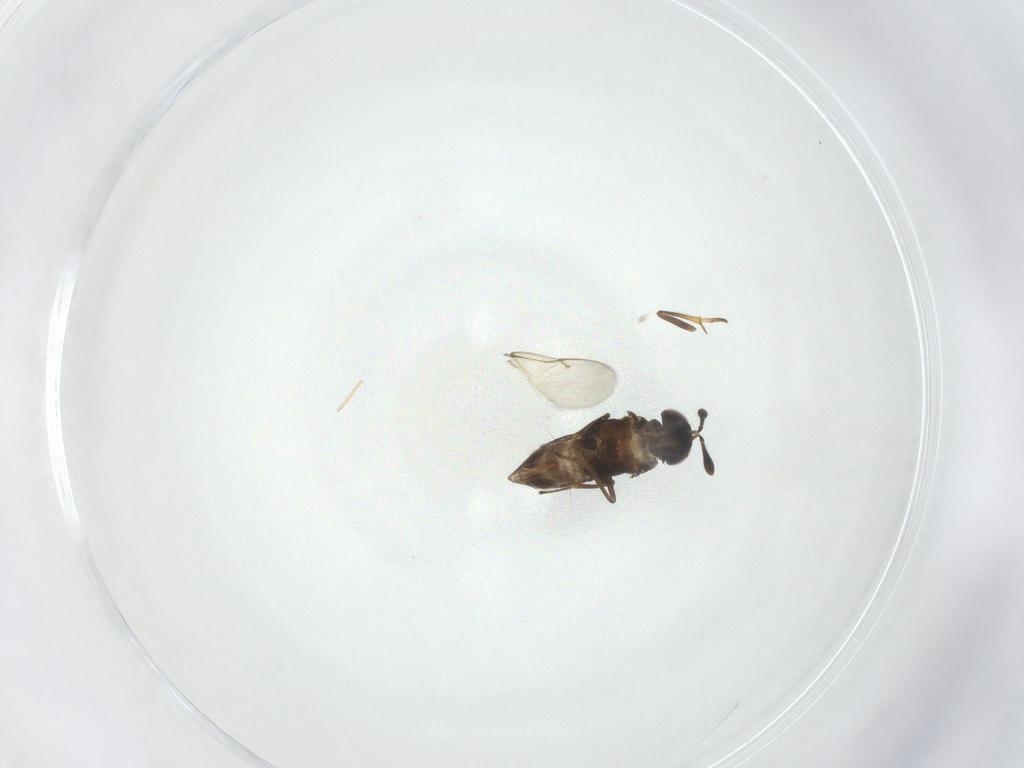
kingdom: Animalia
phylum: Arthropoda
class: Insecta
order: Hymenoptera
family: Encyrtidae
